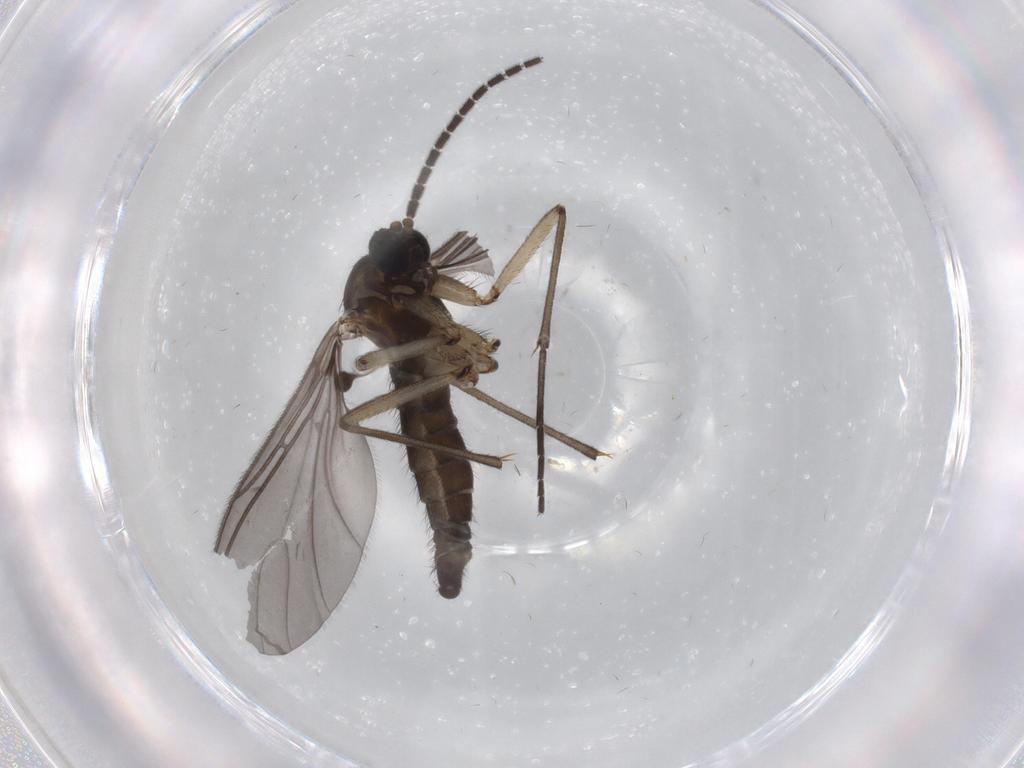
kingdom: Animalia
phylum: Arthropoda
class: Insecta
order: Diptera
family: Sciaridae
